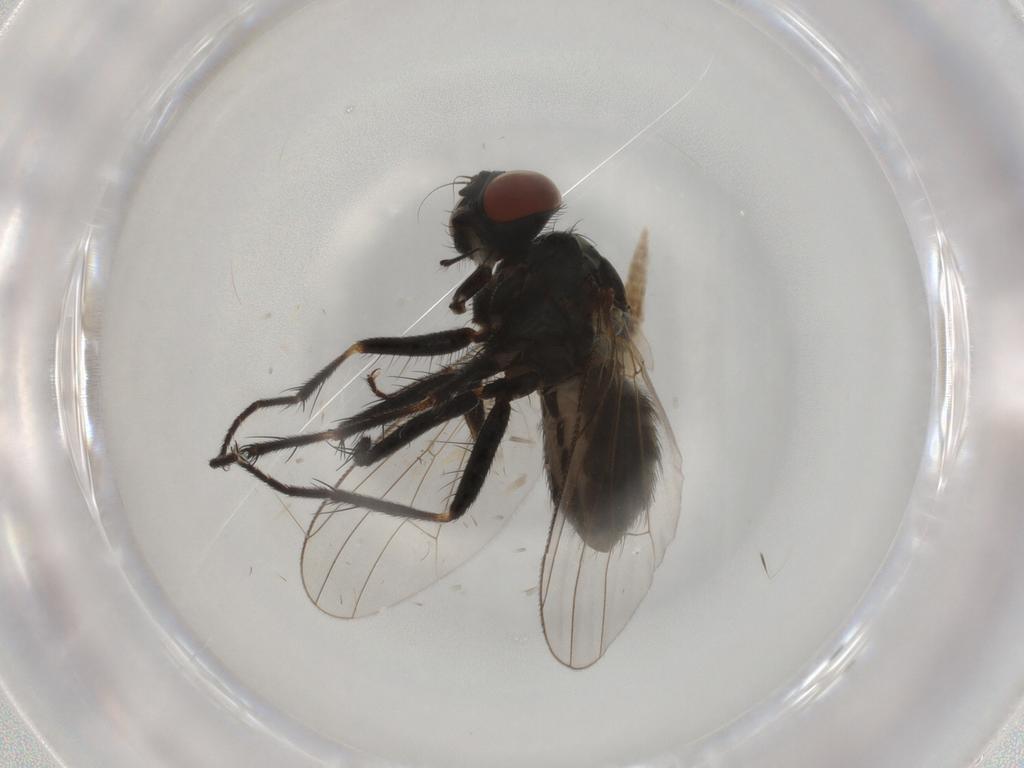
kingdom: Animalia
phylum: Arthropoda
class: Insecta
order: Diptera
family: Muscidae
